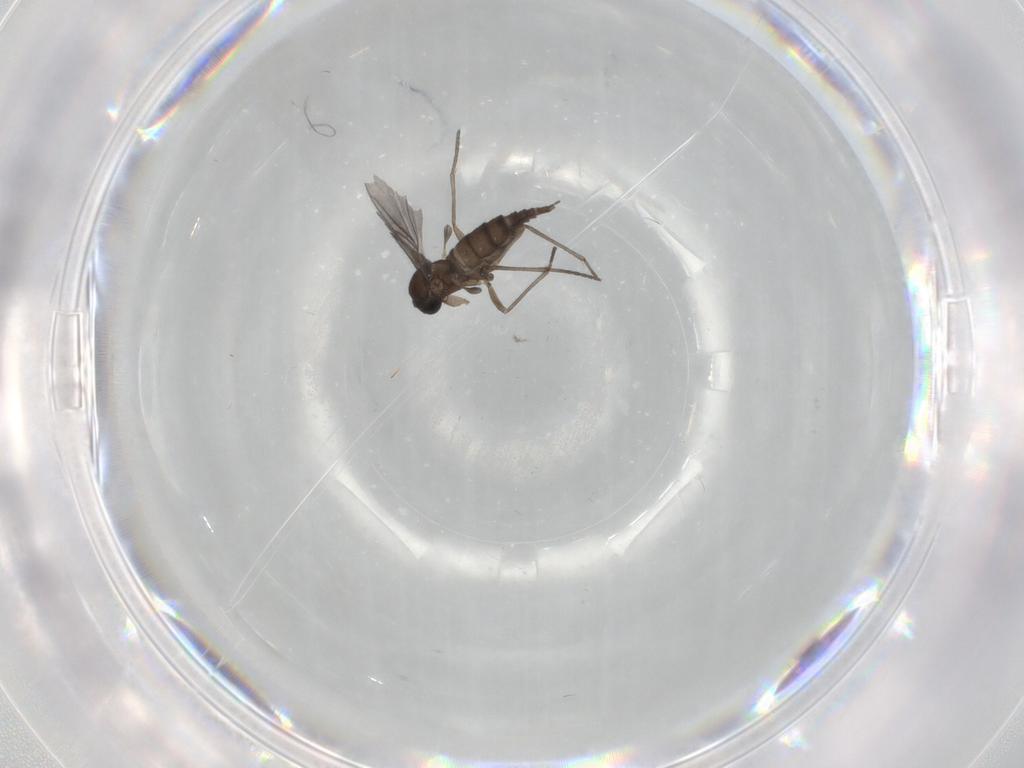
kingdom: Animalia
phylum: Arthropoda
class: Insecta
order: Diptera
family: Sciaridae
